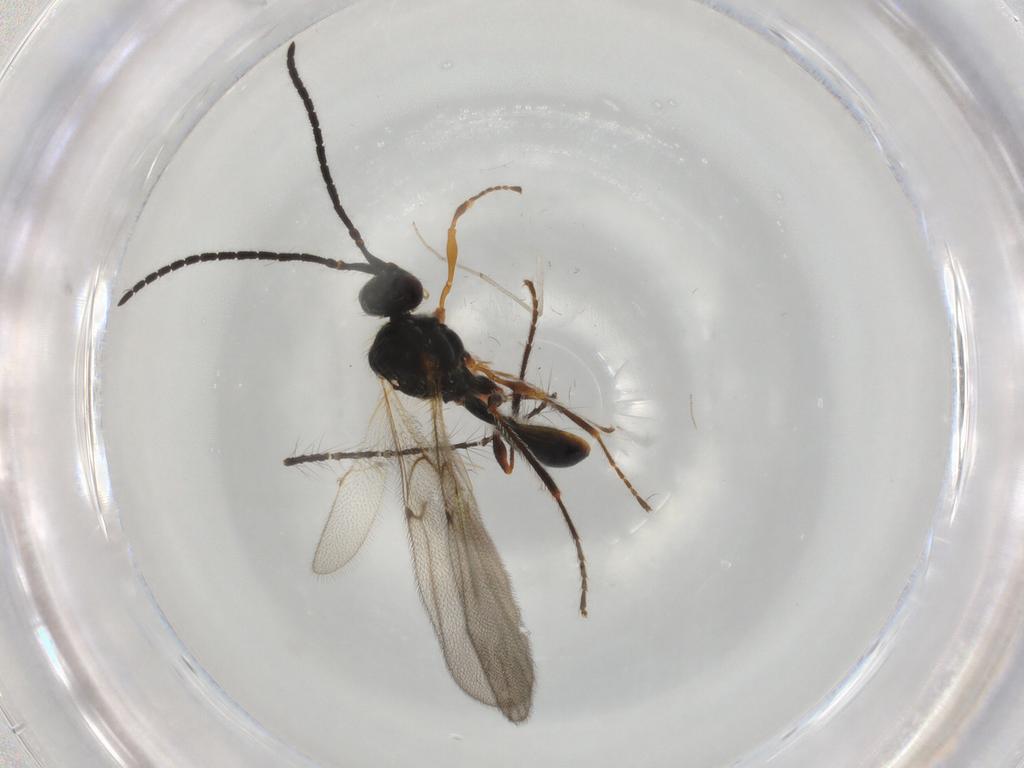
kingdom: Animalia
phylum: Arthropoda
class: Insecta
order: Hymenoptera
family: Diapriidae
